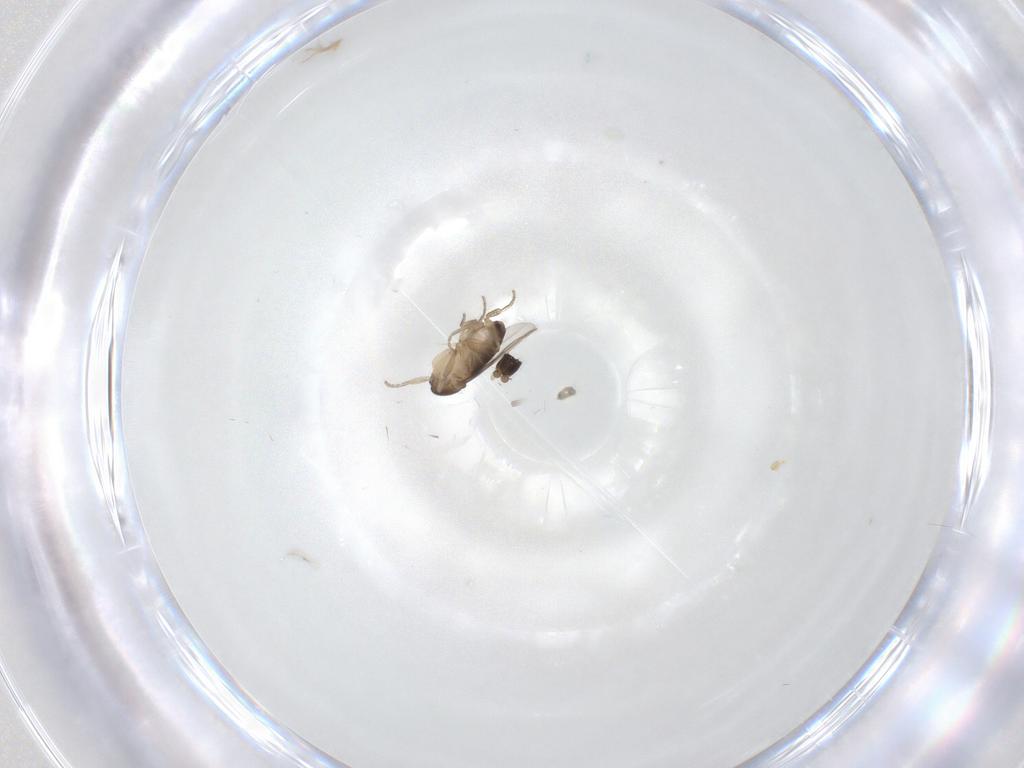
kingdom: Animalia
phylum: Arthropoda
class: Insecta
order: Diptera
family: Phoridae
